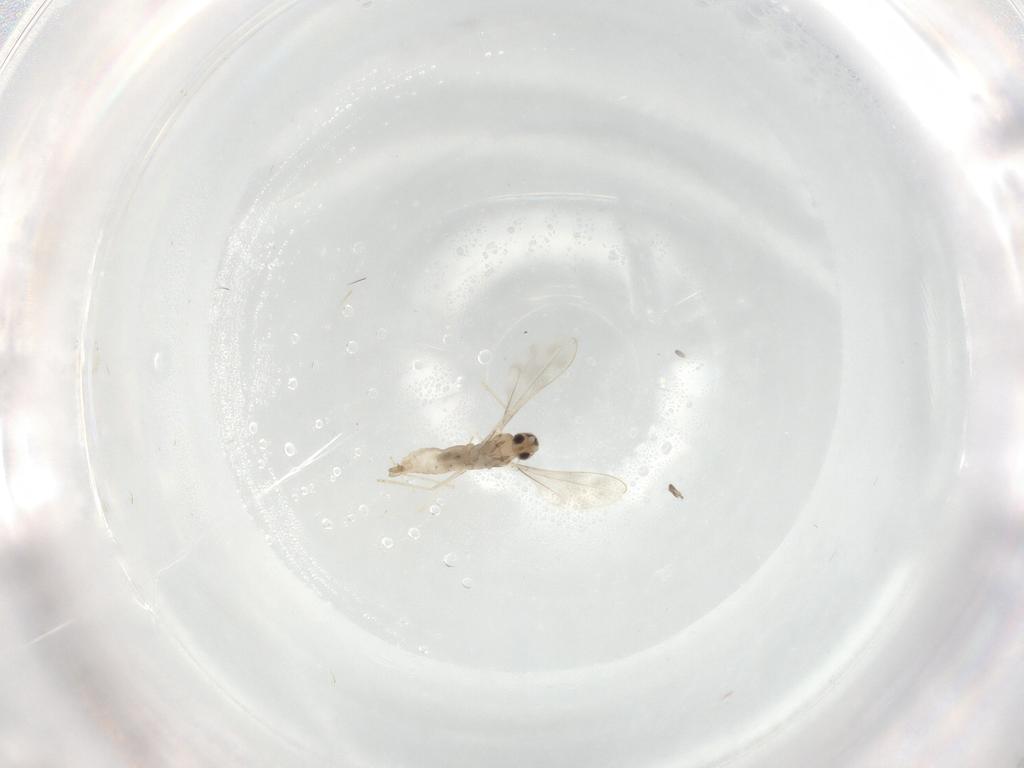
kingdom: Animalia
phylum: Arthropoda
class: Insecta
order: Diptera
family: Cecidomyiidae
